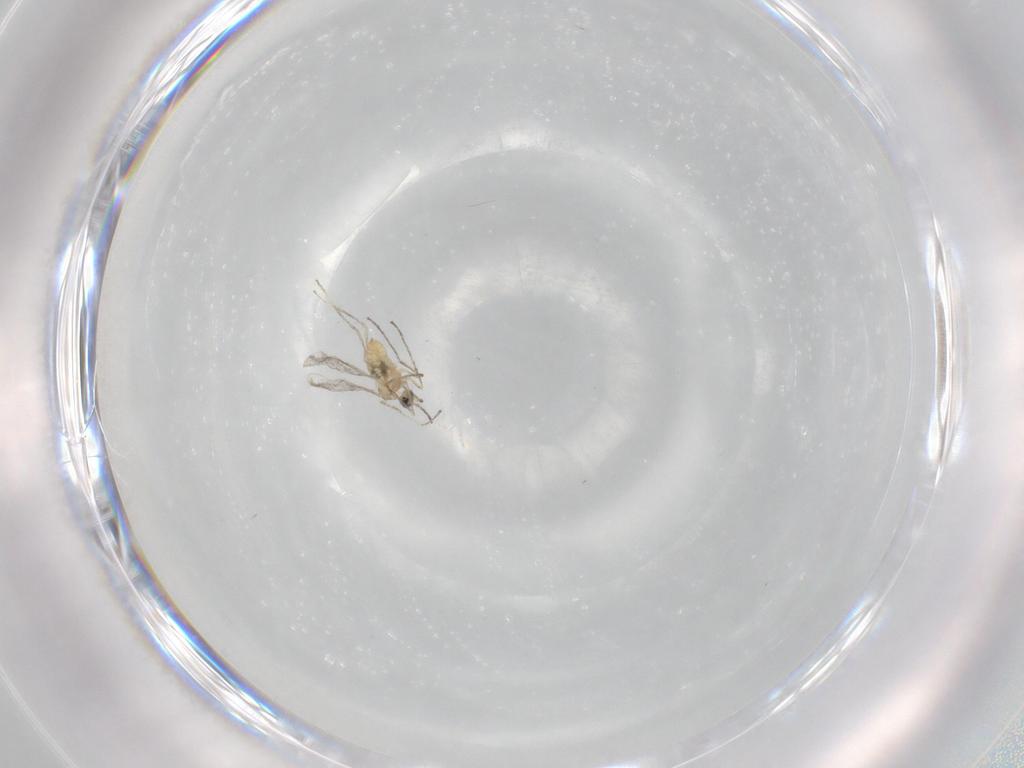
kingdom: Animalia
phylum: Arthropoda
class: Insecta
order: Diptera
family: Cecidomyiidae
